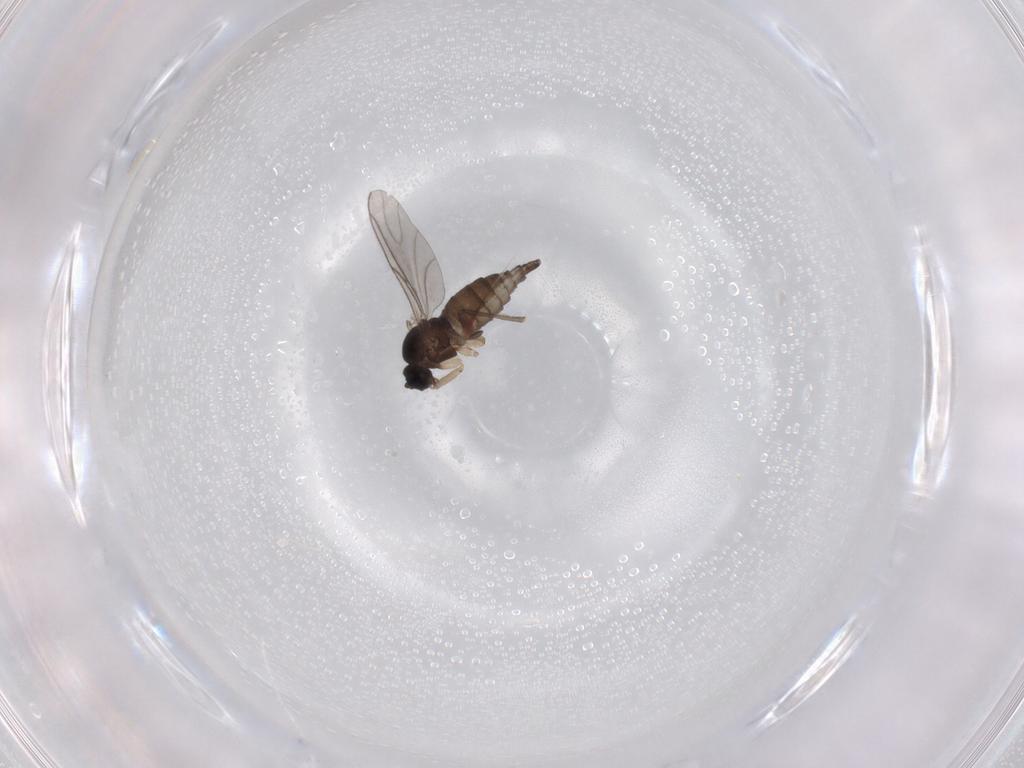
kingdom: Animalia
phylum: Arthropoda
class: Insecta
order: Diptera
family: Sciaridae
